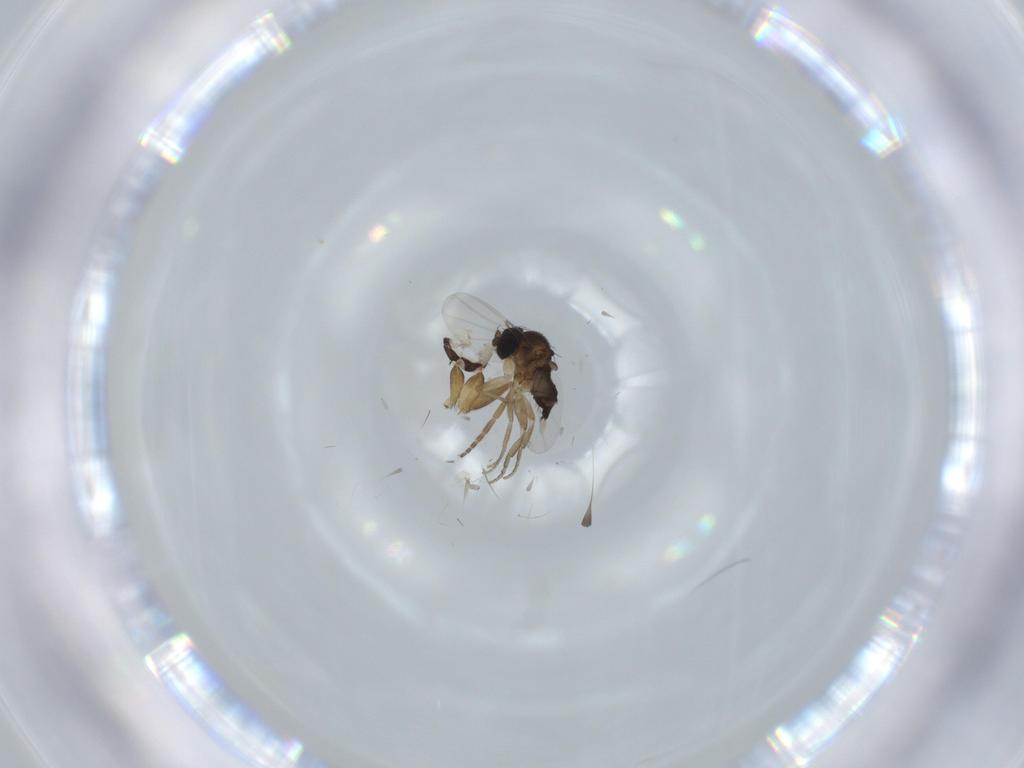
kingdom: Animalia
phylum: Arthropoda
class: Insecta
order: Diptera
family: Phoridae
